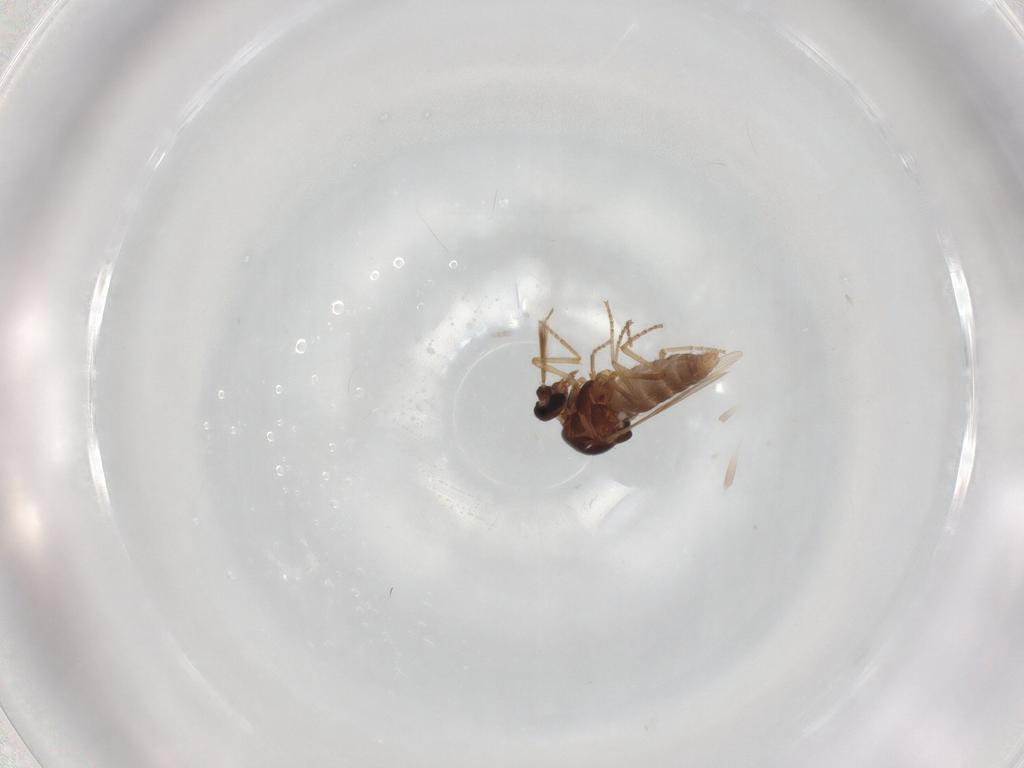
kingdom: Animalia
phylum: Arthropoda
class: Insecta
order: Diptera
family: Ceratopogonidae
